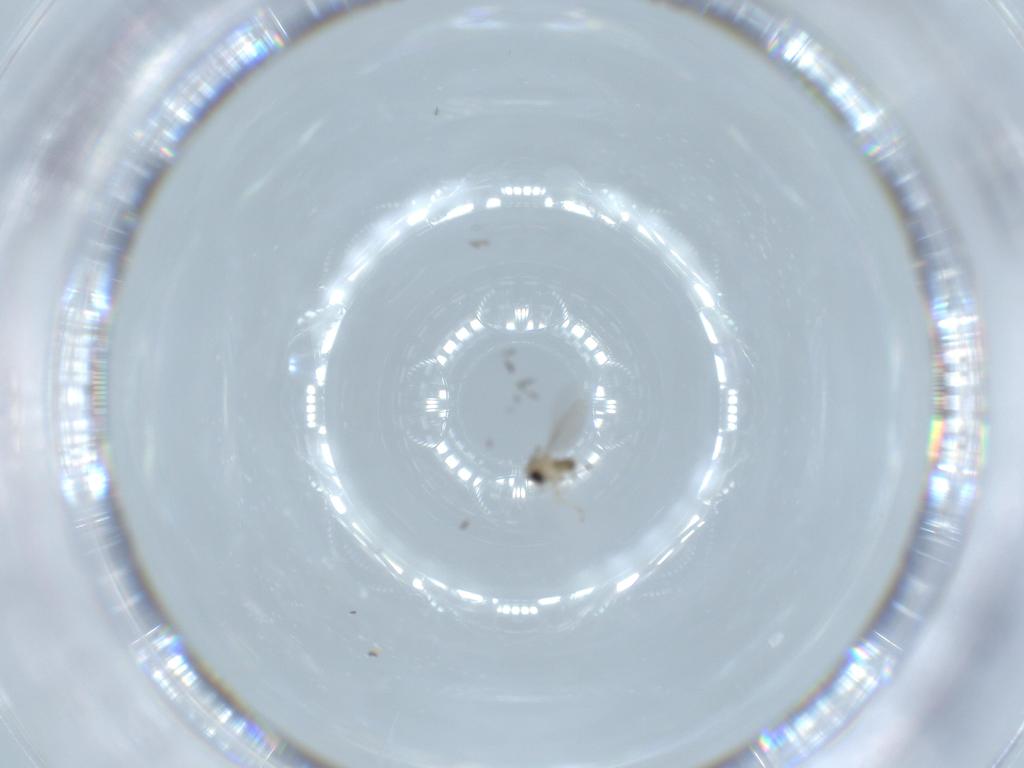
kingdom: Animalia
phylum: Arthropoda
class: Insecta
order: Diptera
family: Cecidomyiidae
